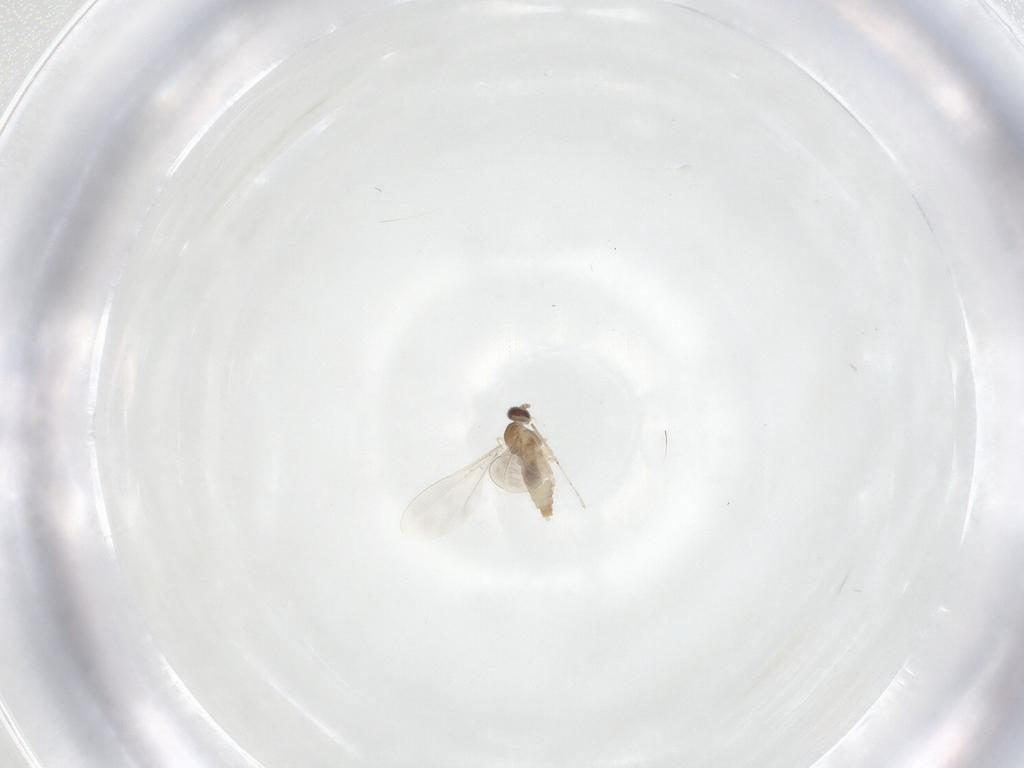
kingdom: Animalia
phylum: Arthropoda
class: Insecta
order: Diptera
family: Cecidomyiidae
